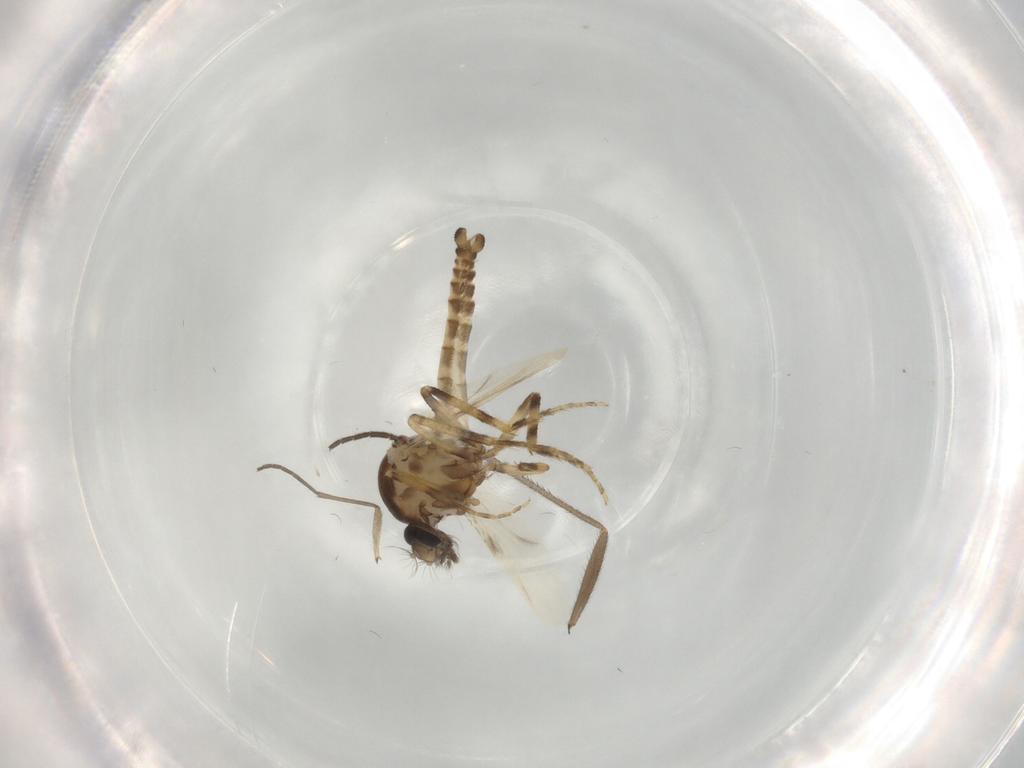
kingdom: Animalia
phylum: Arthropoda
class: Insecta
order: Diptera
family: Ceratopogonidae
